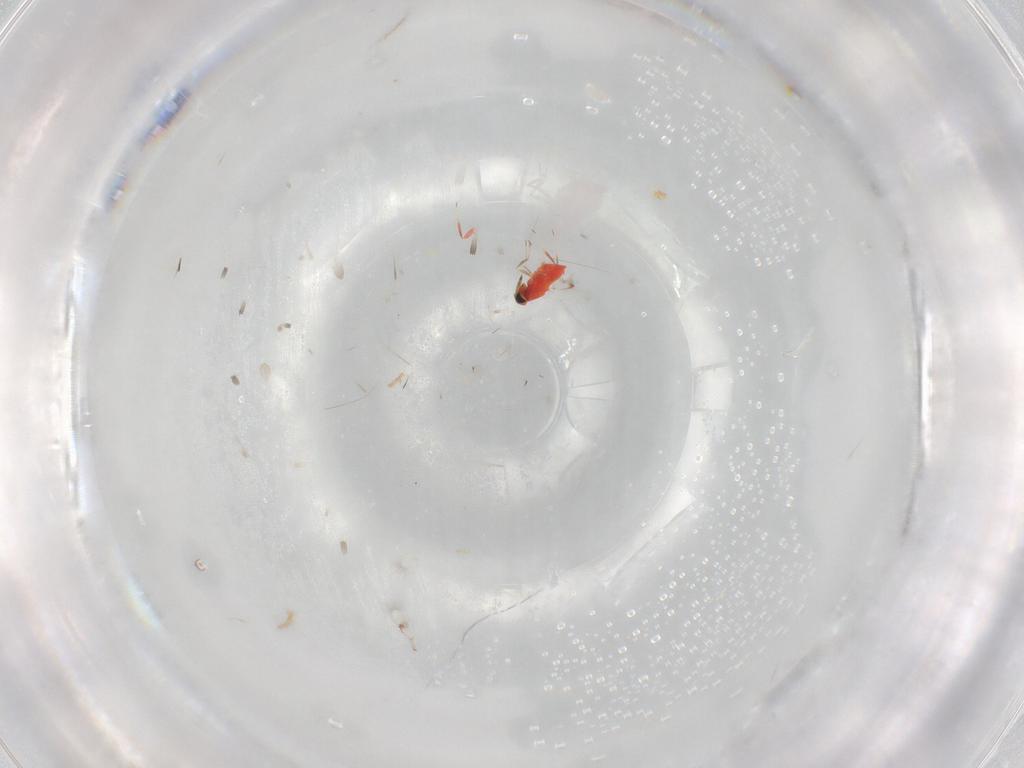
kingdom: Animalia
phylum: Arthropoda
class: Insecta
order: Hymenoptera
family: Trichogrammatidae
